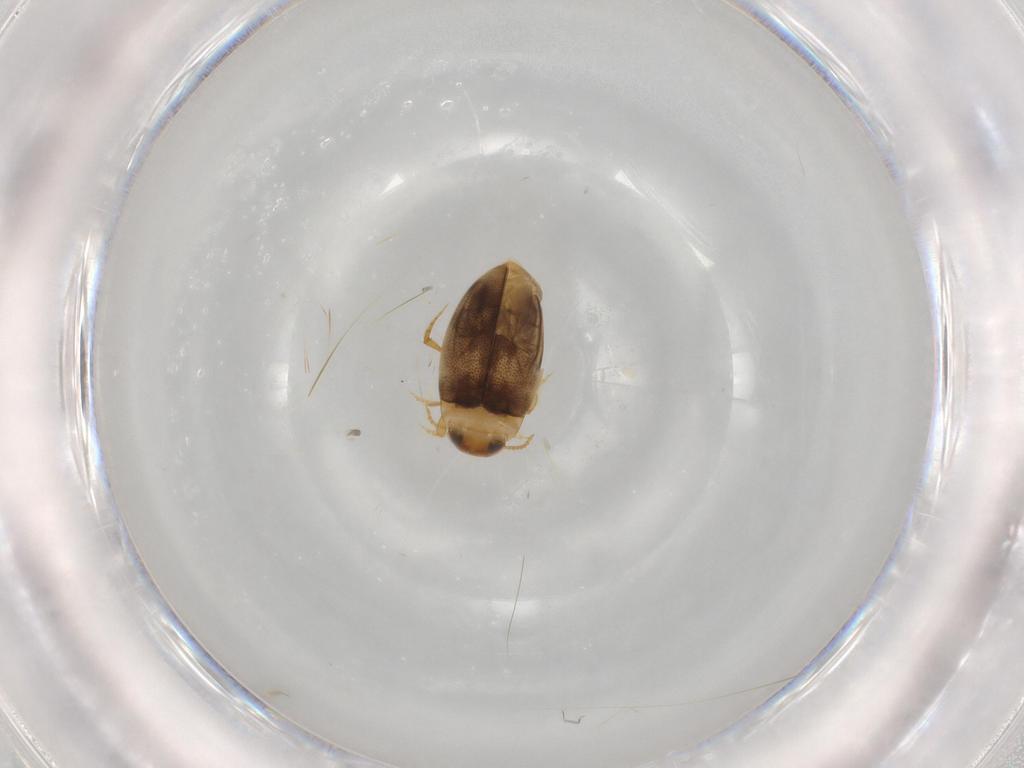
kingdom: Animalia
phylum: Arthropoda
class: Insecta
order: Coleoptera
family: Dytiscidae
